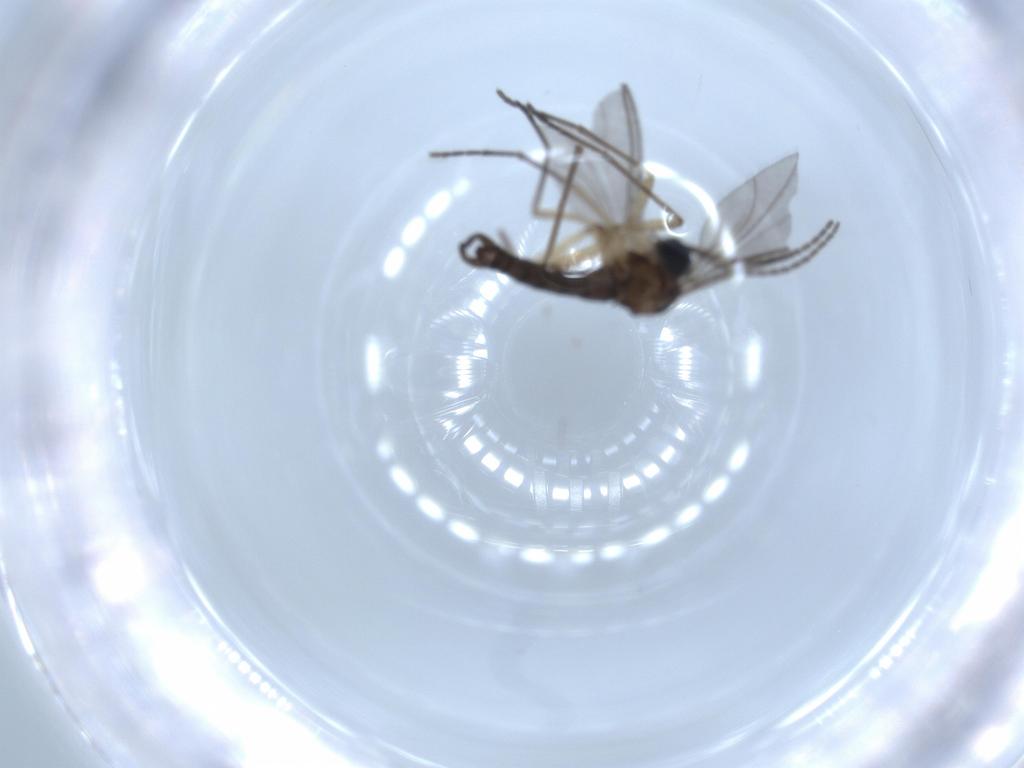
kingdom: Animalia
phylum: Arthropoda
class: Insecta
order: Diptera
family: Sciaridae
